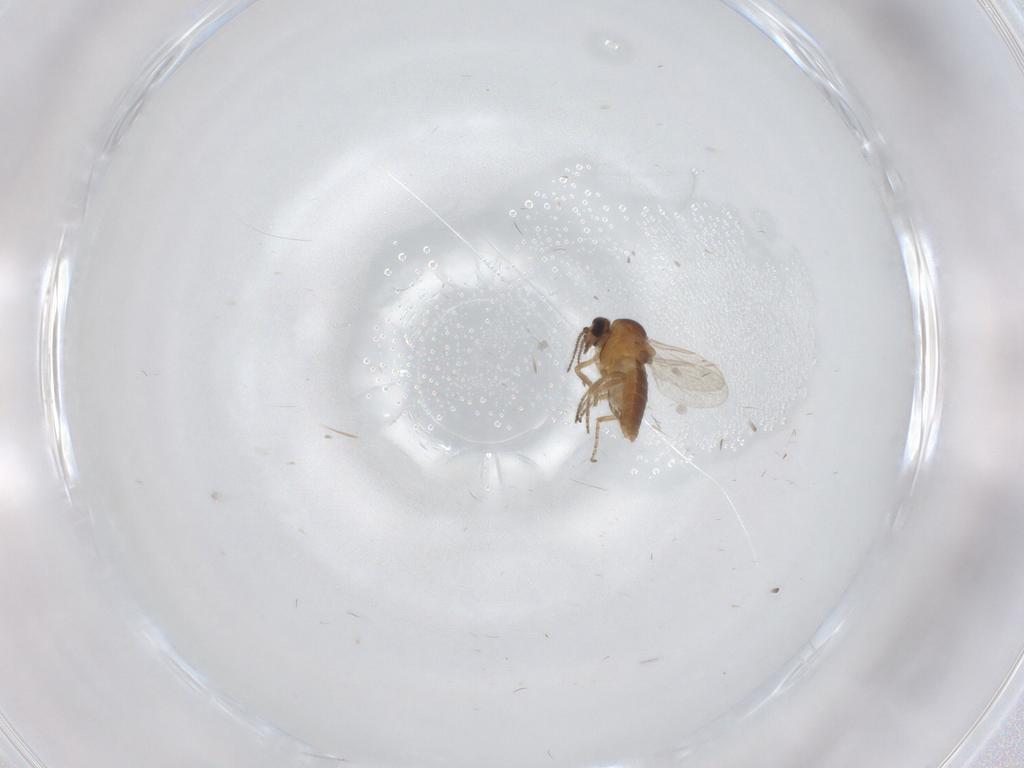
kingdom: Animalia
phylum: Arthropoda
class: Insecta
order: Diptera
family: Ceratopogonidae
